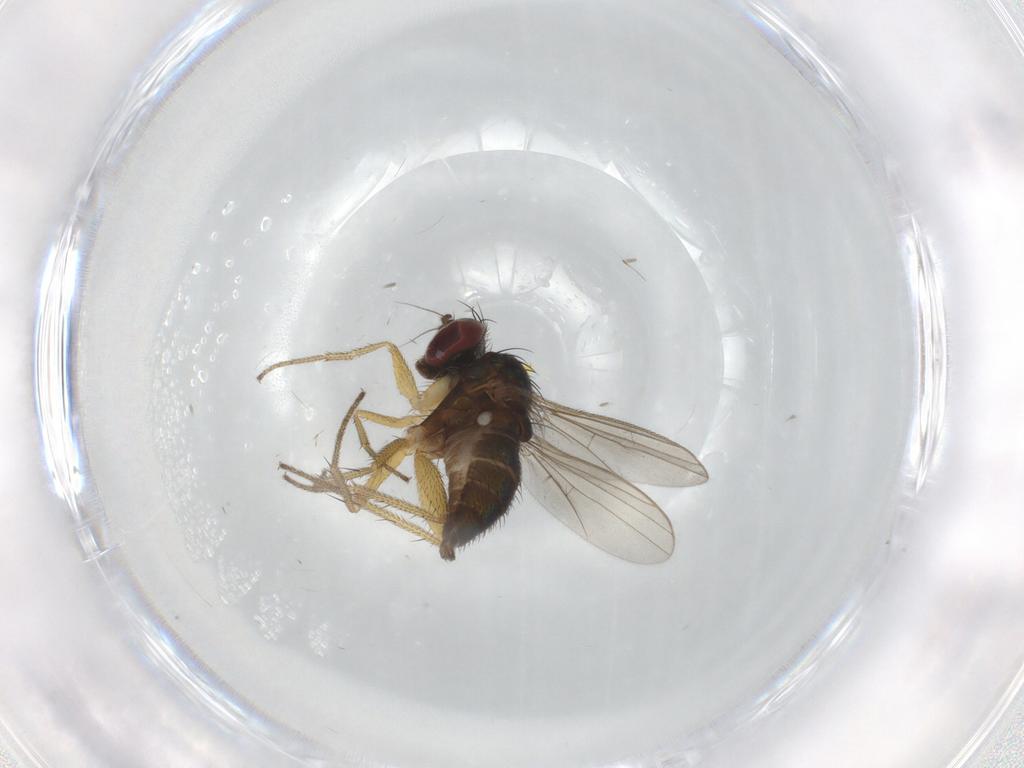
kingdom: Animalia
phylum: Arthropoda
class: Insecta
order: Diptera
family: Dolichopodidae
